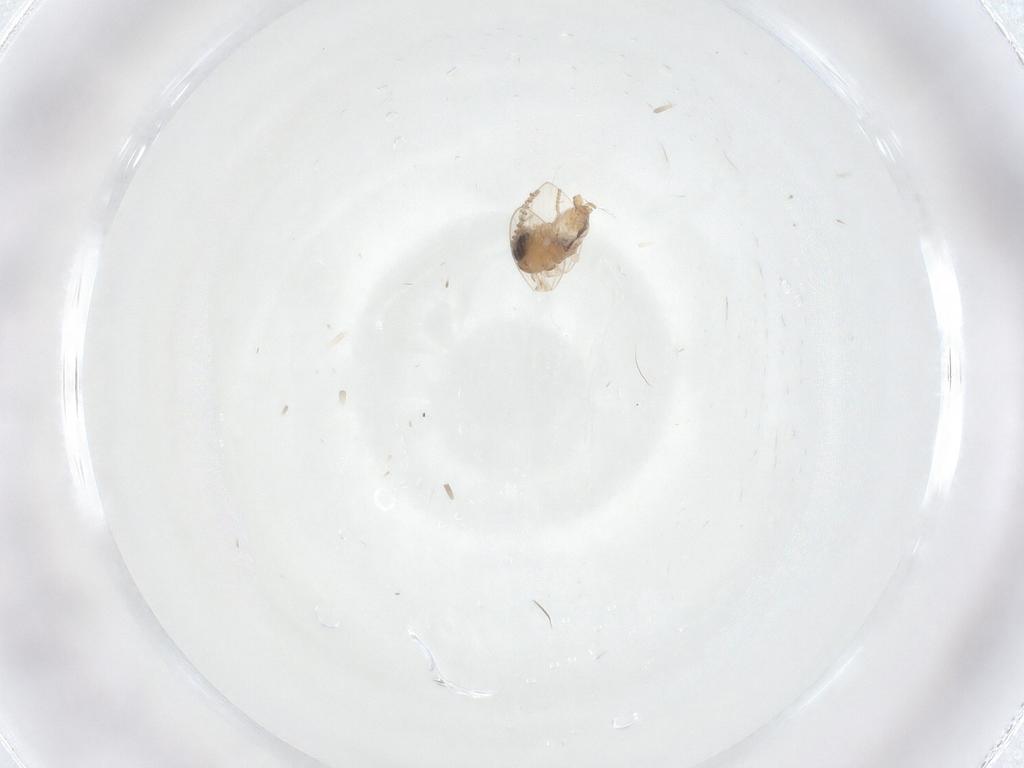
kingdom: Animalia
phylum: Arthropoda
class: Insecta
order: Diptera
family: Psychodidae
